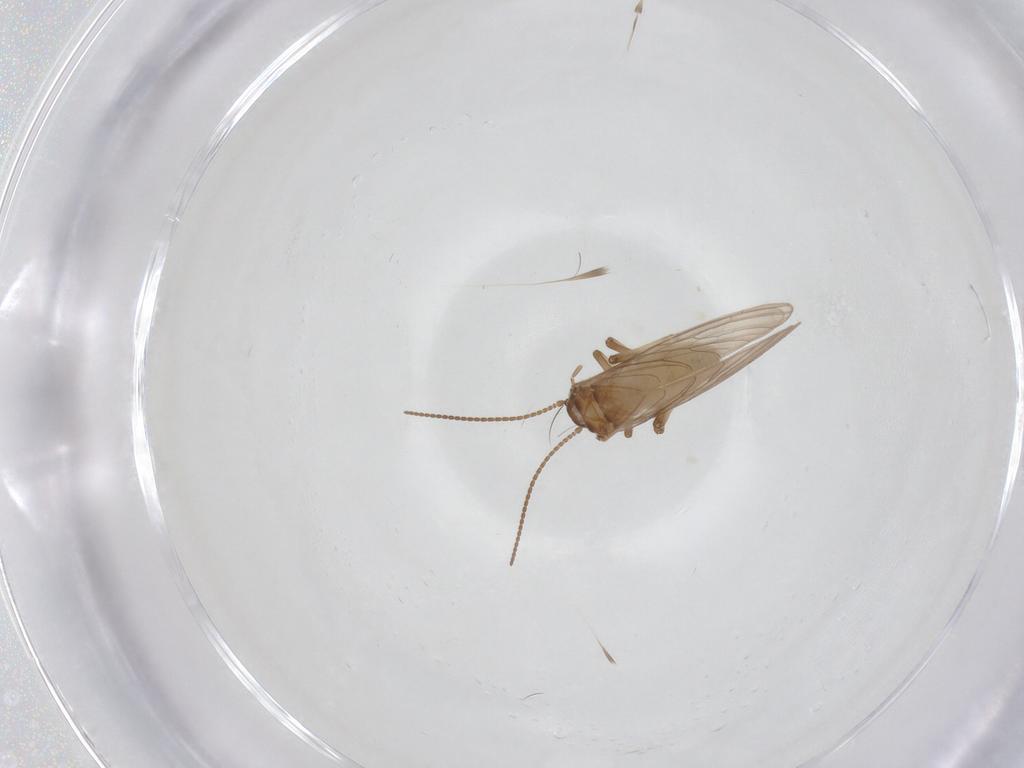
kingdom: Animalia
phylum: Arthropoda
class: Insecta
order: Neuroptera
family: Coniopterygidae
